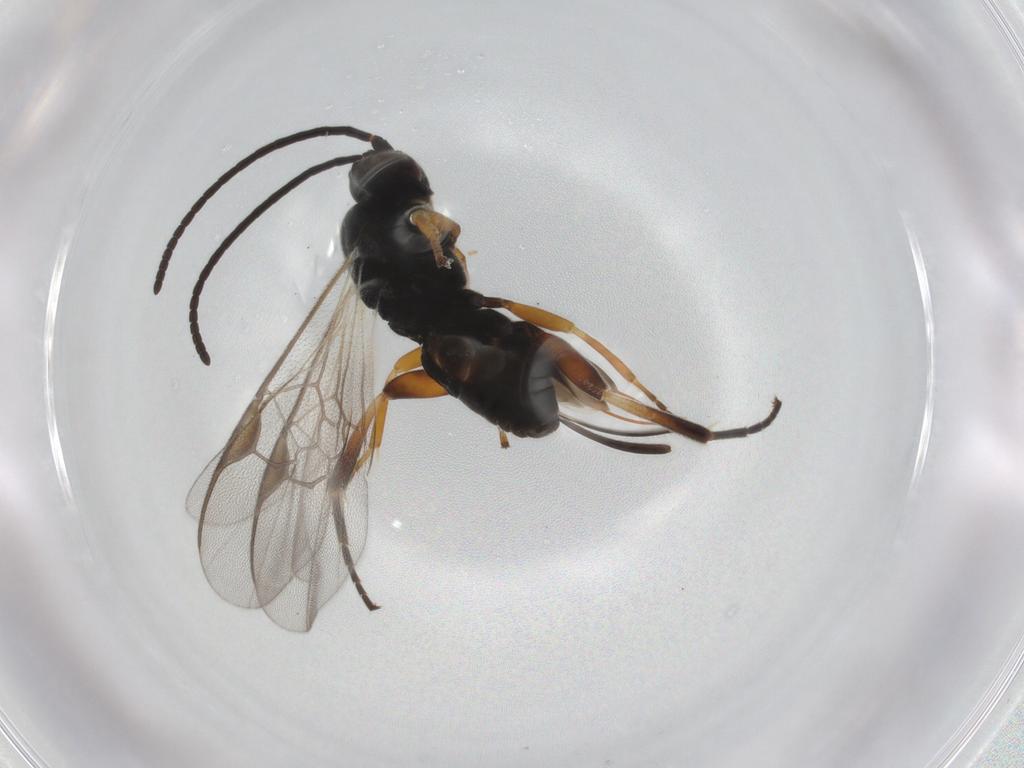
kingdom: Animalia
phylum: Arthropoda
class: Insecta
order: Hymenoptera
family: Braconidae
